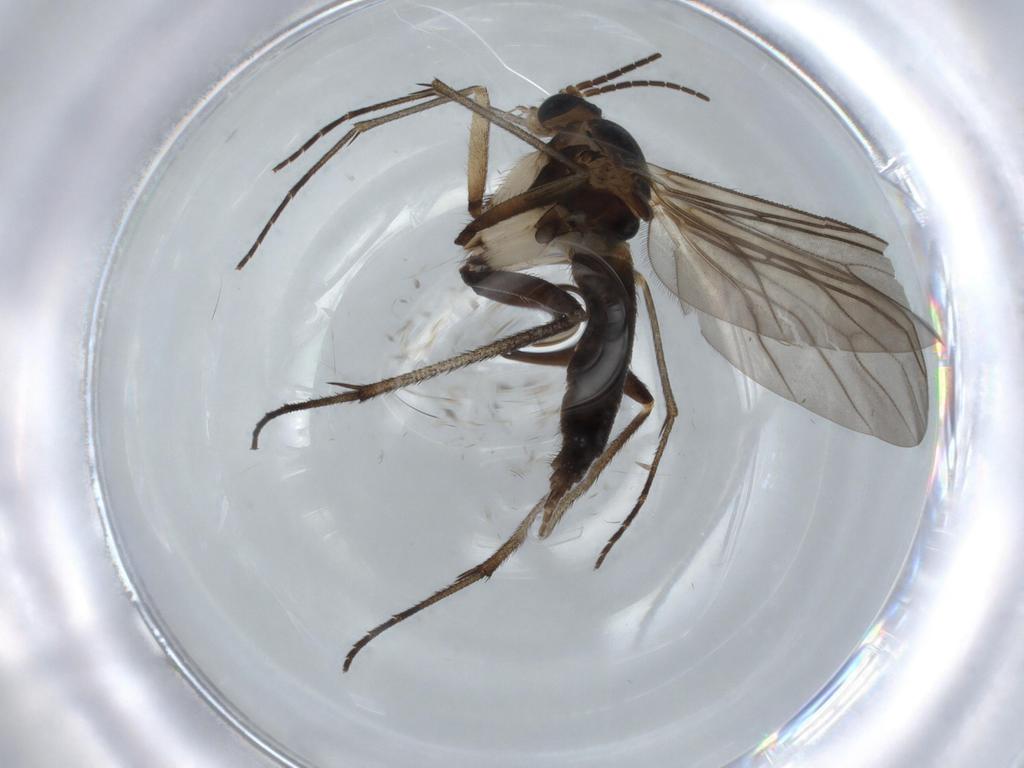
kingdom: Animalia
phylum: Arthropoda
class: Insecta
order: Diptera
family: Sciaridae
